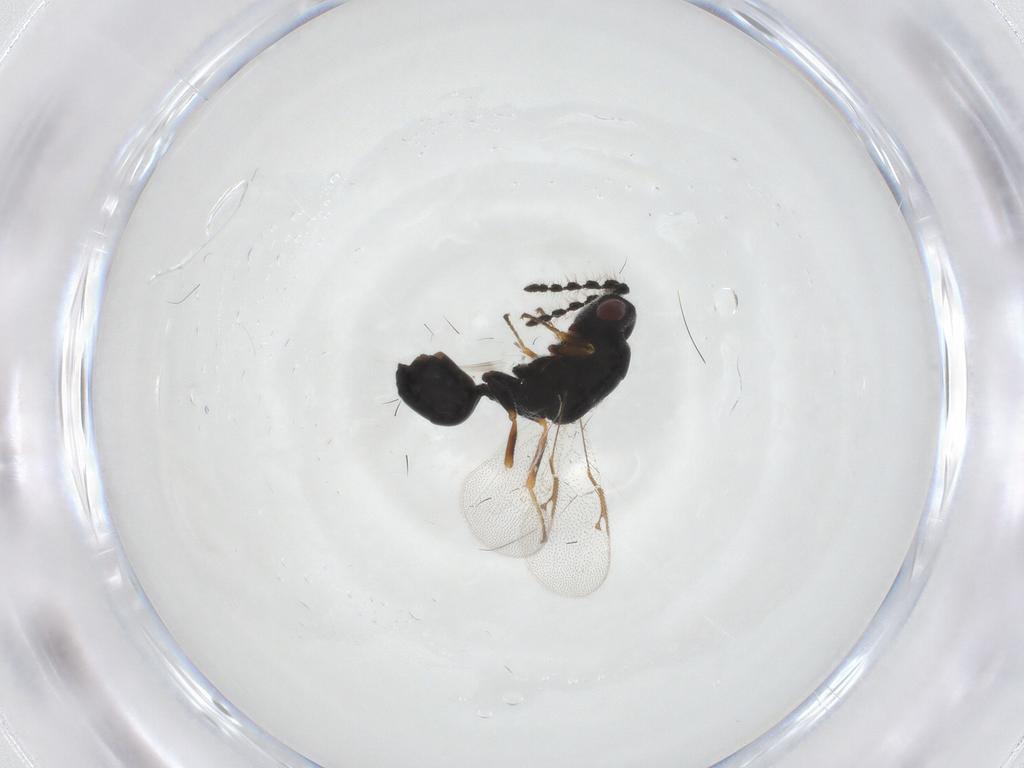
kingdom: Animalia
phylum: Arthropoda
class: Insecta
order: Hymenoptera
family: Eurytomidae
